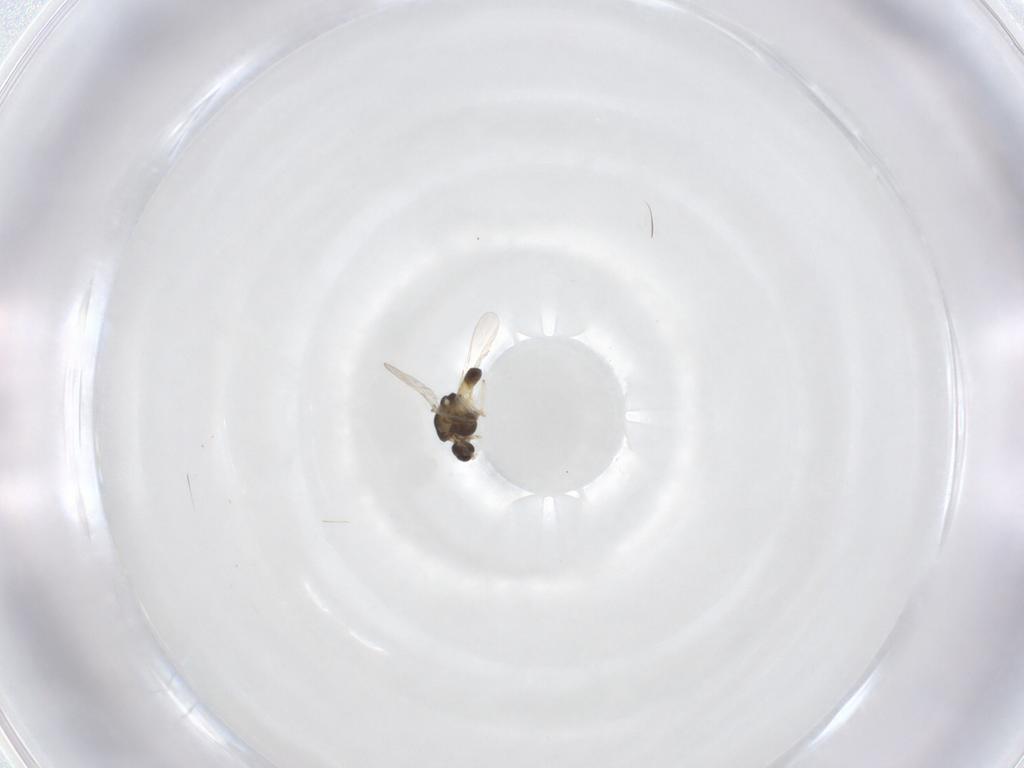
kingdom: Animalia
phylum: Arthropoda
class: Insecta
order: Diptera
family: Chironomidae
